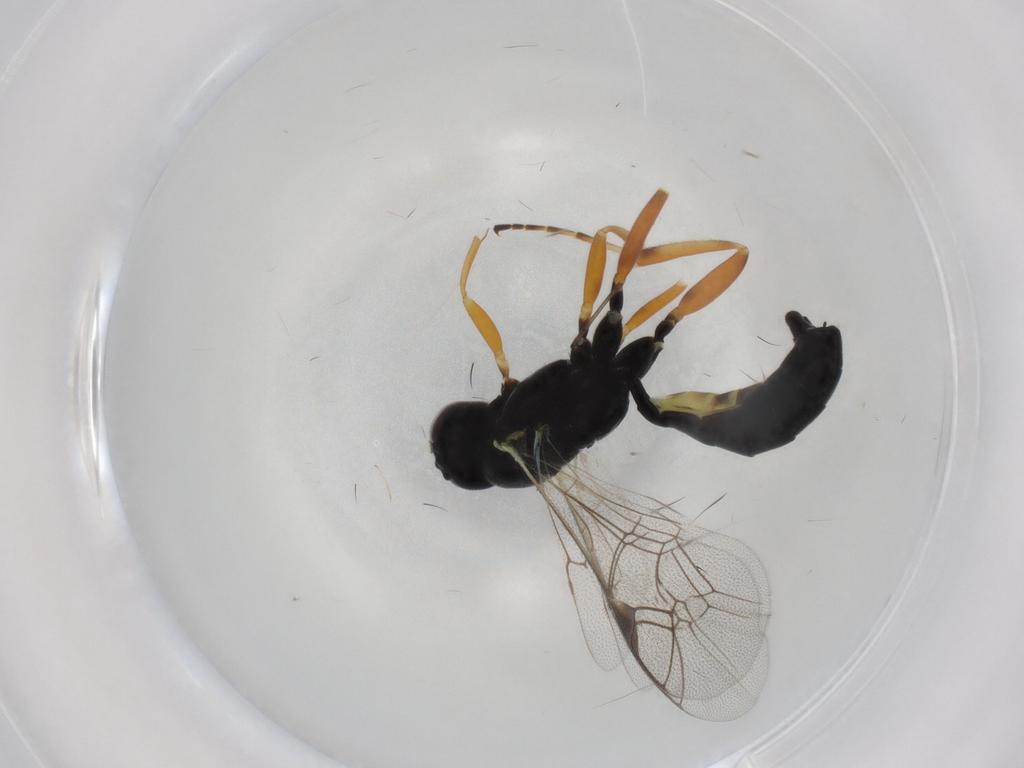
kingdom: Animalia
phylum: Arthropoda
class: Insecta
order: Hymenoptera
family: Ichneumonidae
